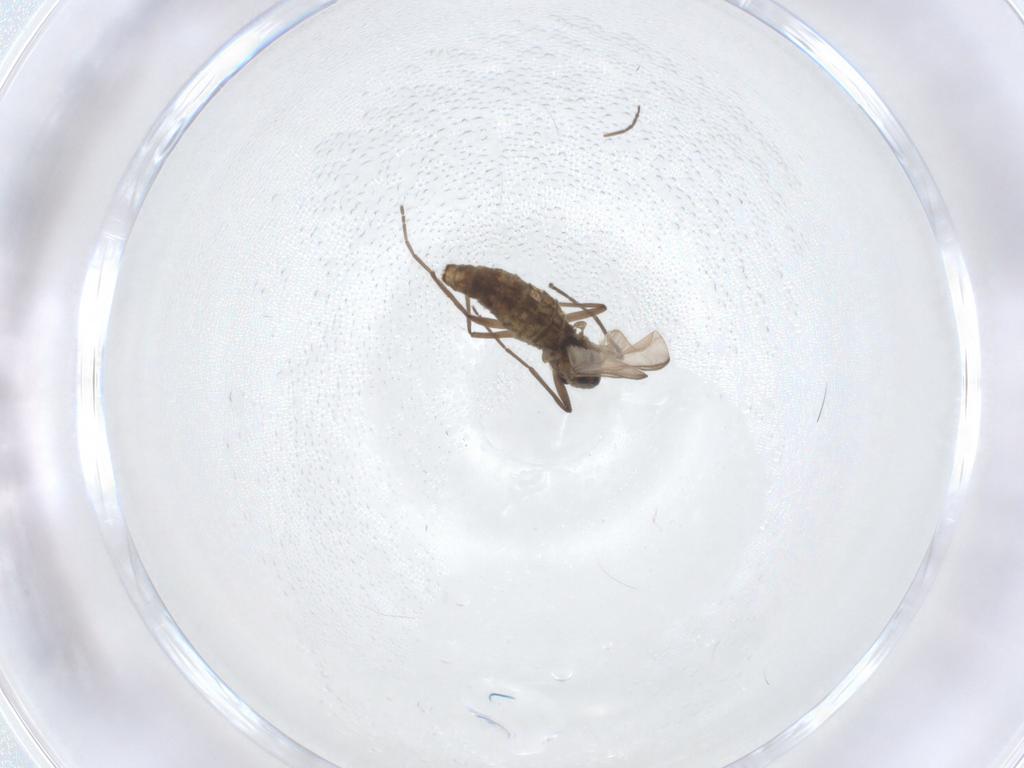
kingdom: Animalia
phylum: Arthropoda
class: Insecta
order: Diptera
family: Chironomidae
